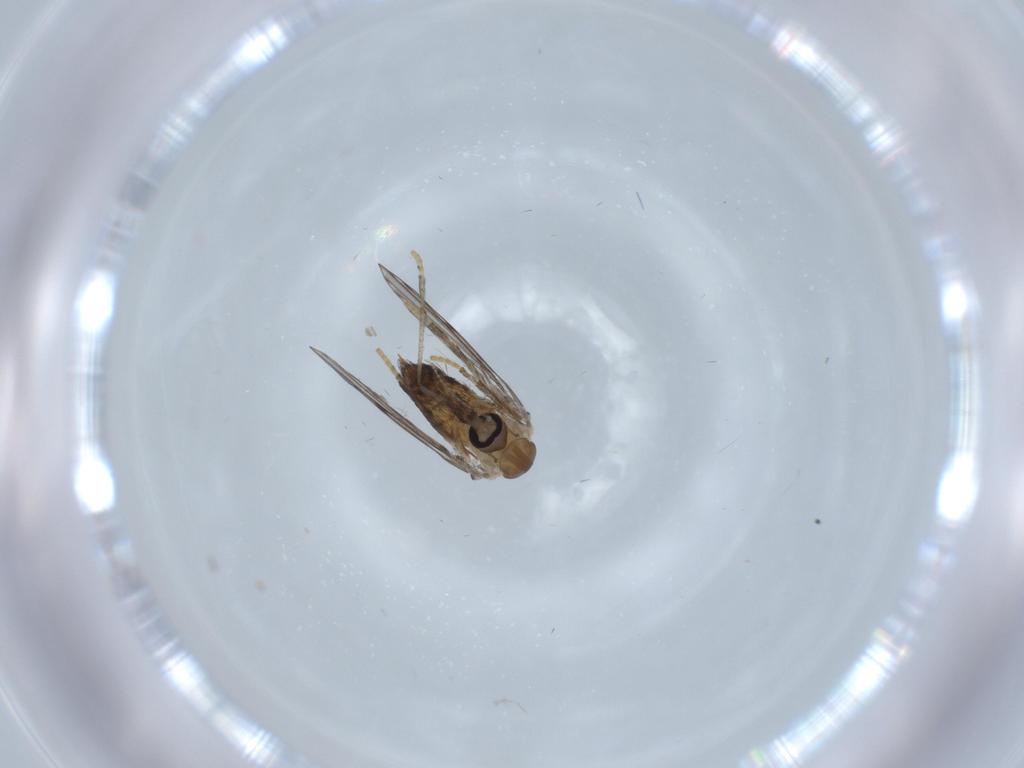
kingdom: Animalia
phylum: Arthropoda
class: Insecta
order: Diptera
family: Psychodidae
